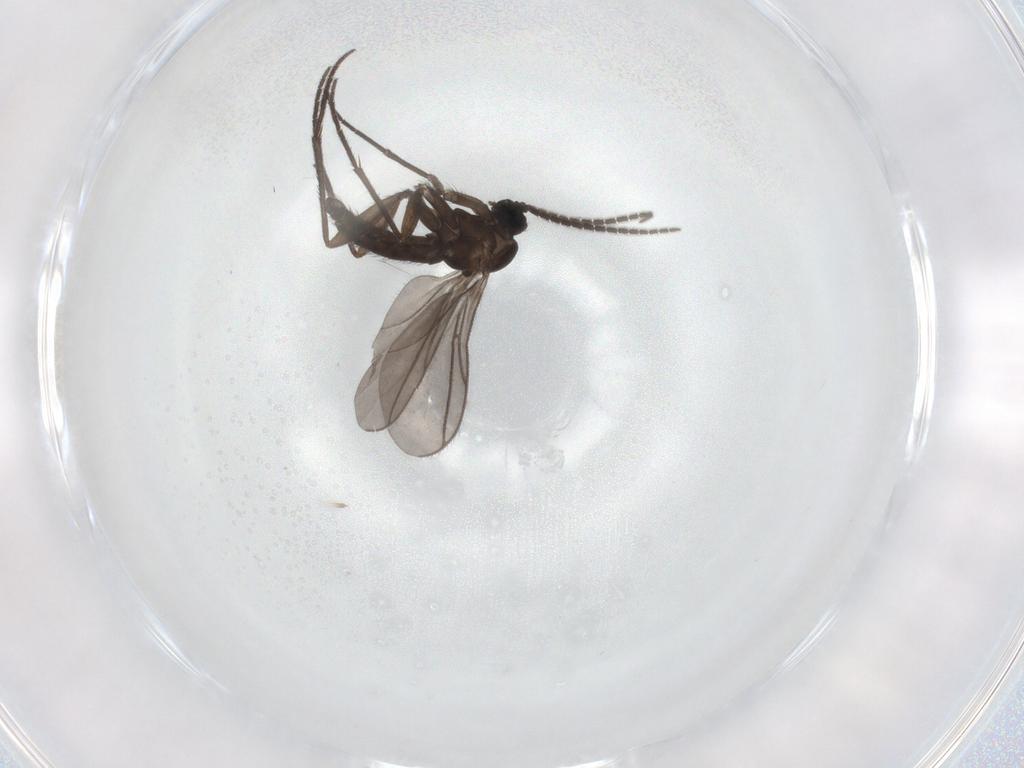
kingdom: Animalia
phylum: Arthropoda
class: Insecta
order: Diptera
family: Sciaridae
